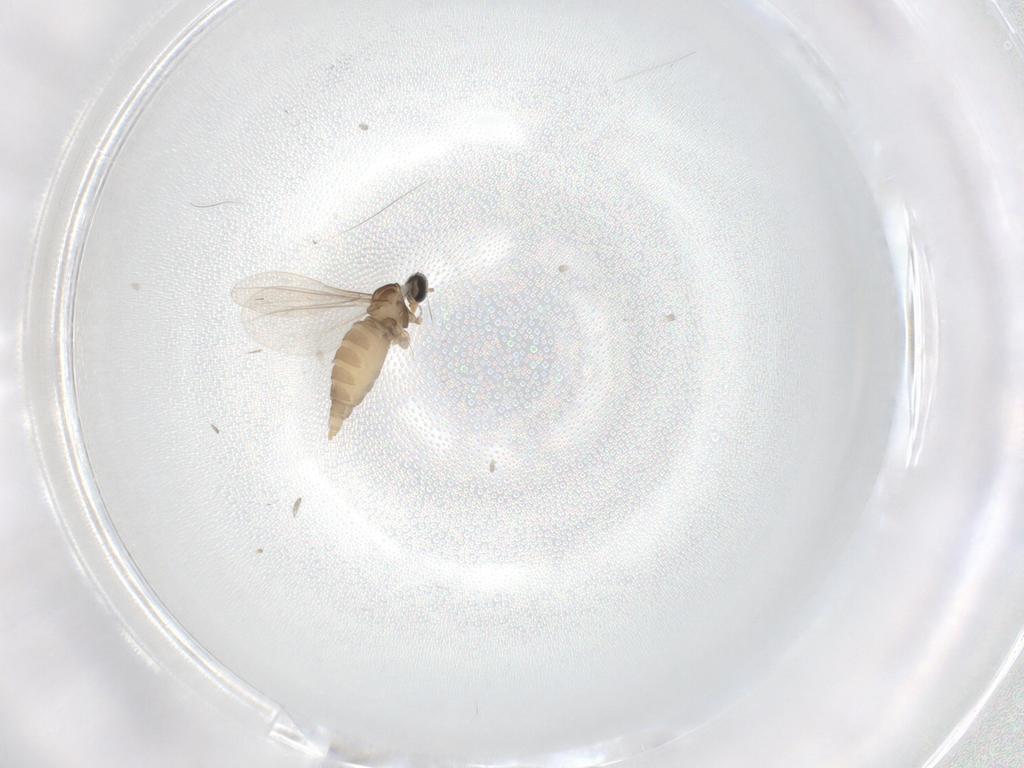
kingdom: Animalia
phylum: Arthropoda
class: Insecta
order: Diptera
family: Cecidomyiidae
